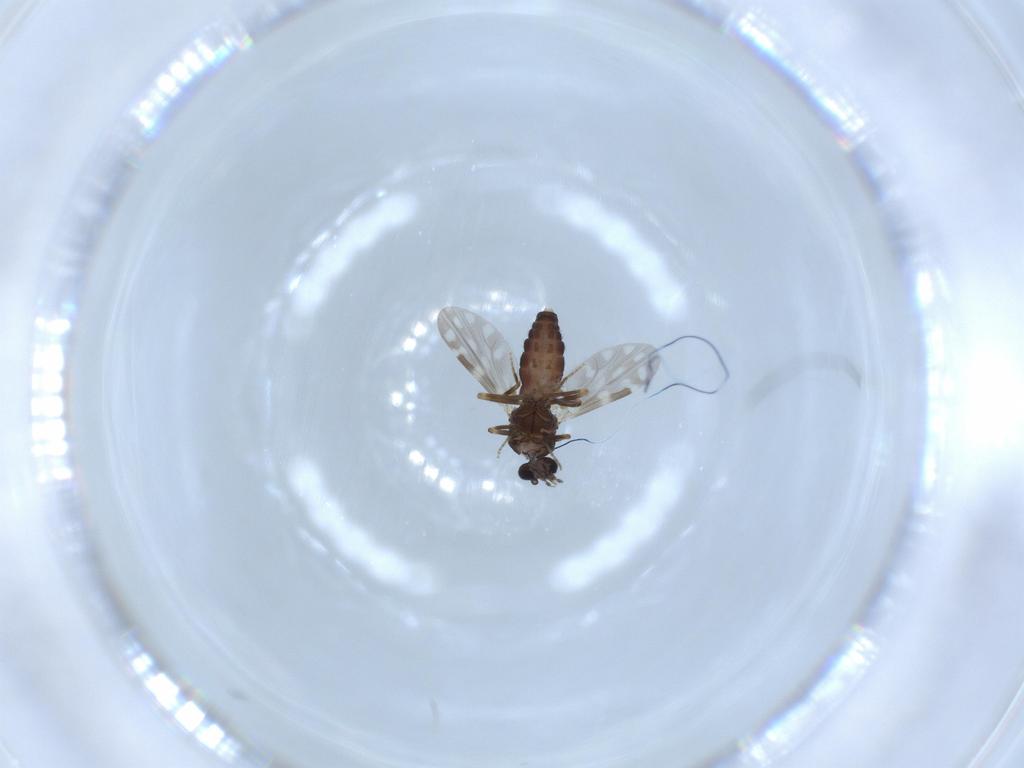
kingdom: Animalia
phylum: Arthropoda
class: Insecta
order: Diptera
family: Ceratopogonidae
